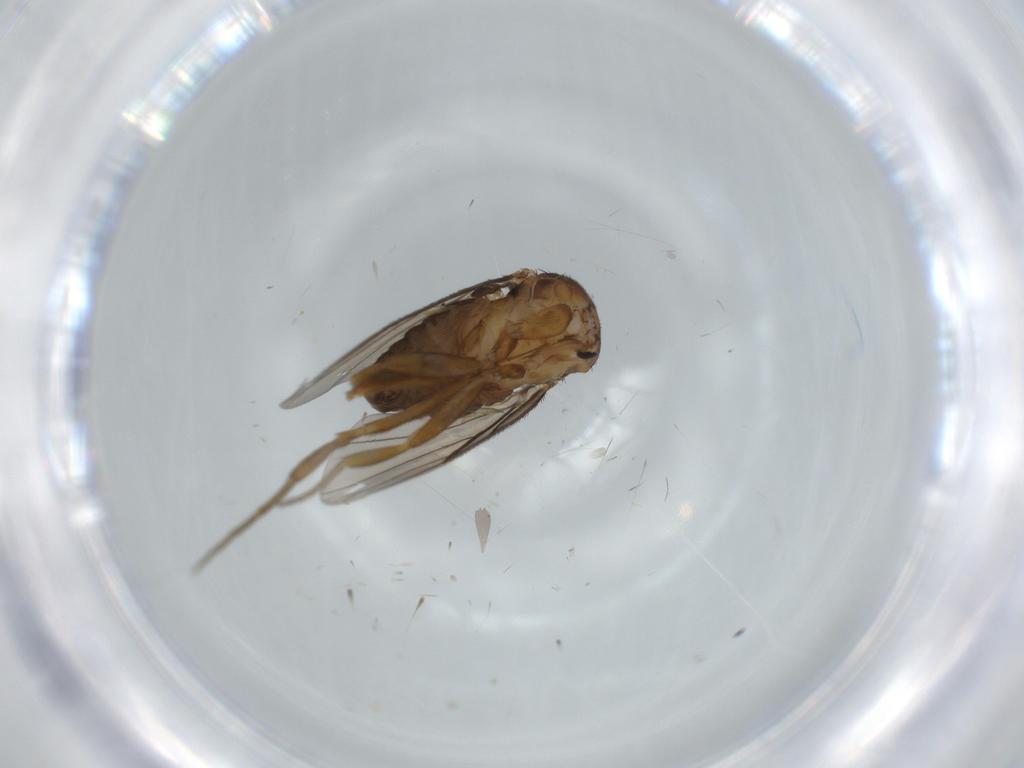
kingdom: Animalia
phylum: Arthropoda
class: Insecta
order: Diptera
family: Phoridae
